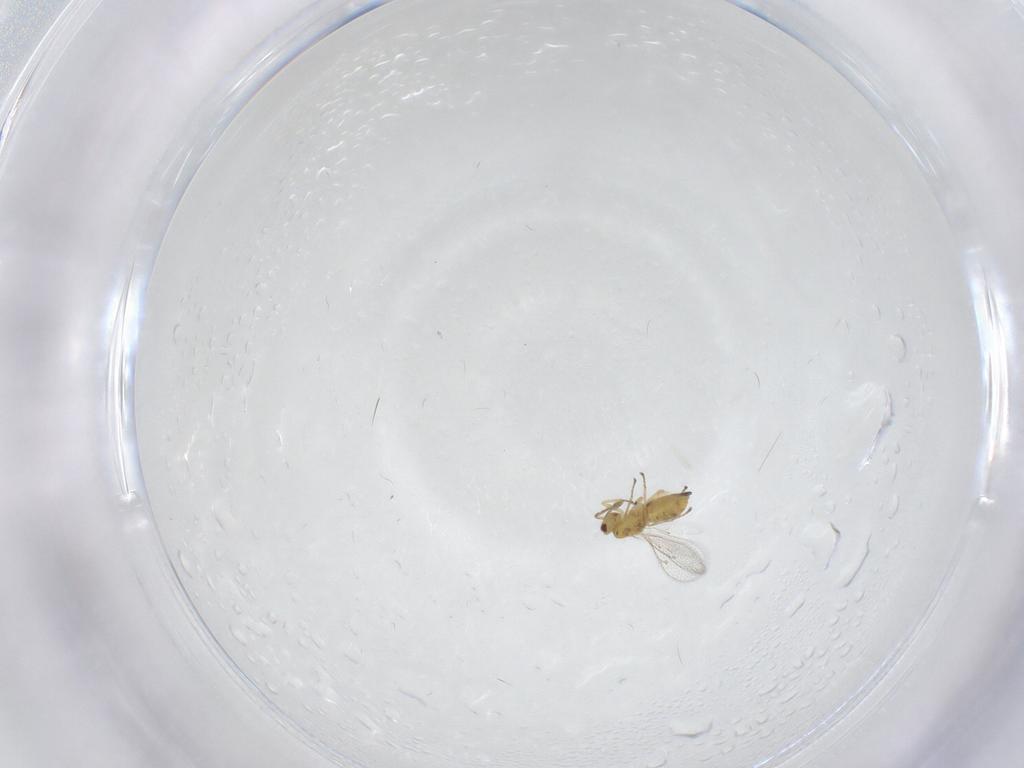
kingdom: Animalia
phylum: Arthropoda
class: Insecta
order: Hymenoptera
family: Eulophidae
